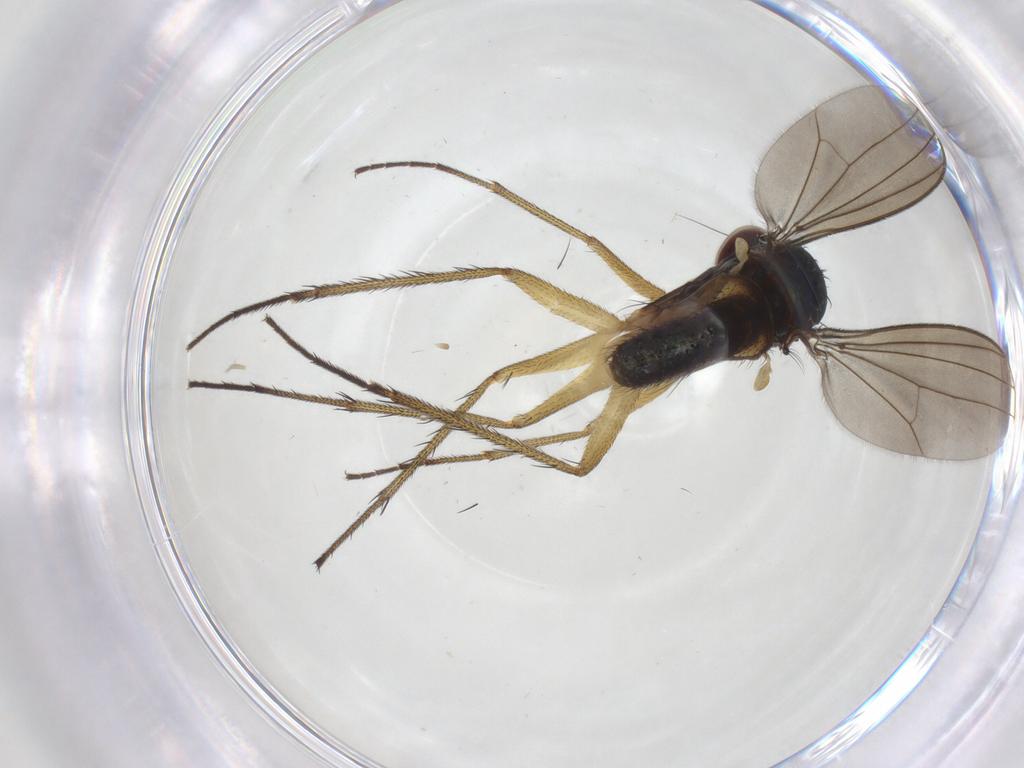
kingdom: Animalia
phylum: Arthropoda
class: Insecta
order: Diptera
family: Dolichopodidae
